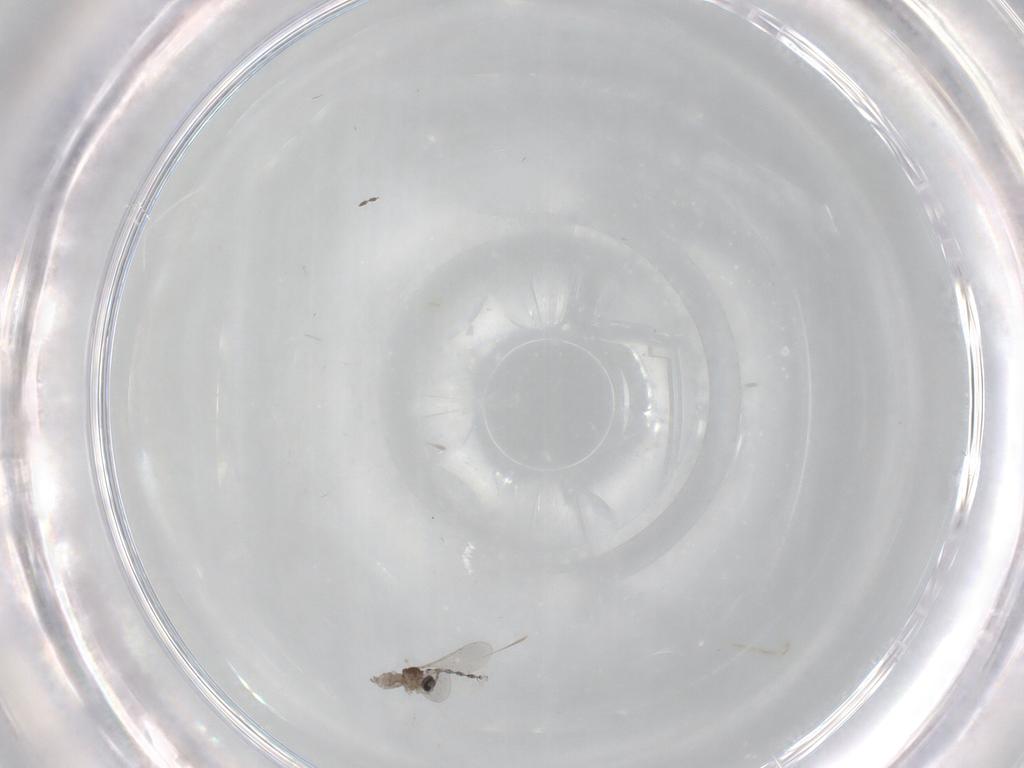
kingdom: Animalia
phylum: Arthropoda
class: Insecta
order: Diptera
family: Cecidomyiidae
